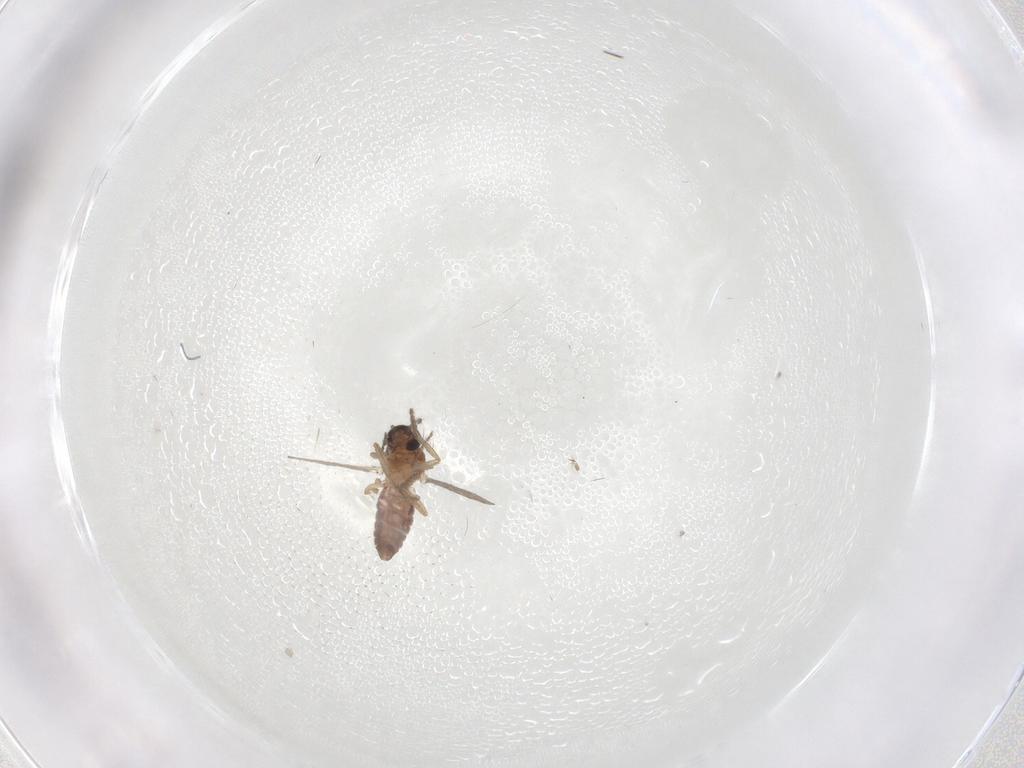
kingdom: Animalia
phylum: Arthropoda
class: Insecta
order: Diptera
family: Ceratopogonidae
